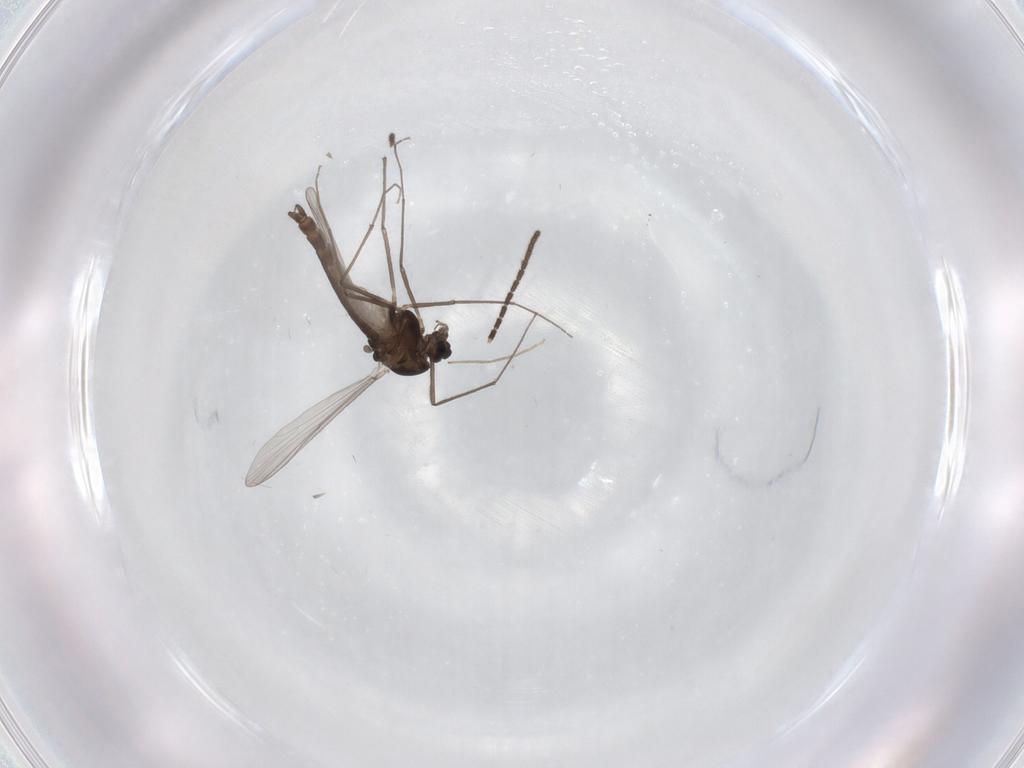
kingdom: Animalia
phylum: Arthropoda
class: Insecta
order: Diptera
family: Chironomidae
